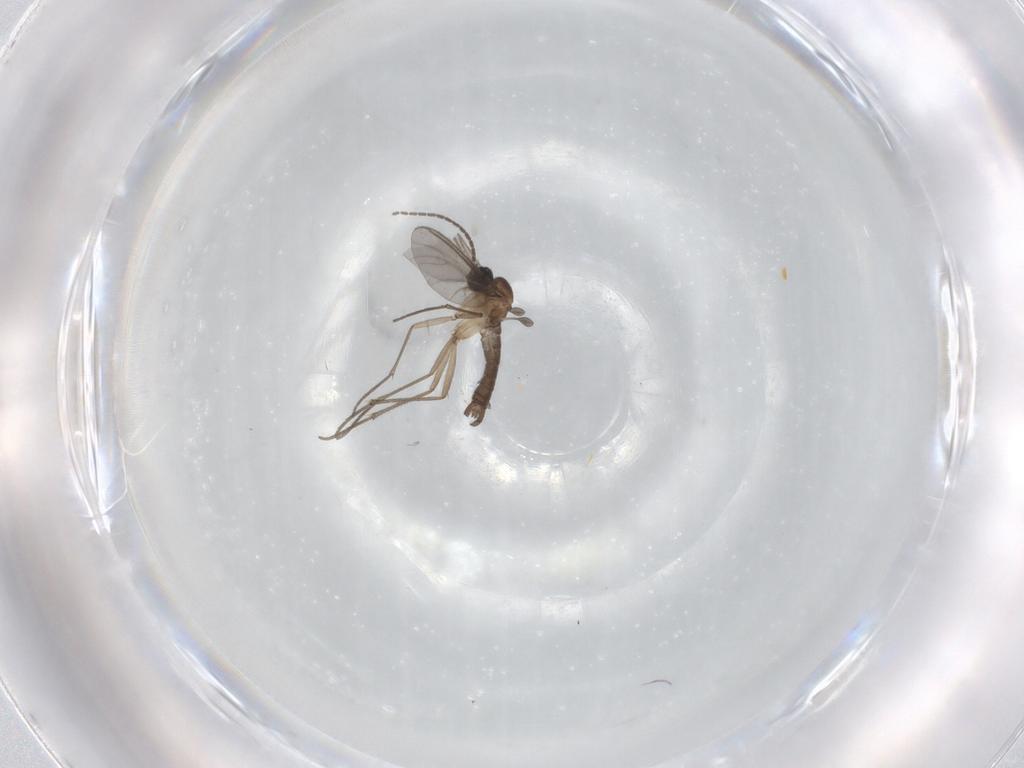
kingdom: Animalia
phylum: Arthropoda
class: Insecta
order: Diptera
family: Sciaridae
